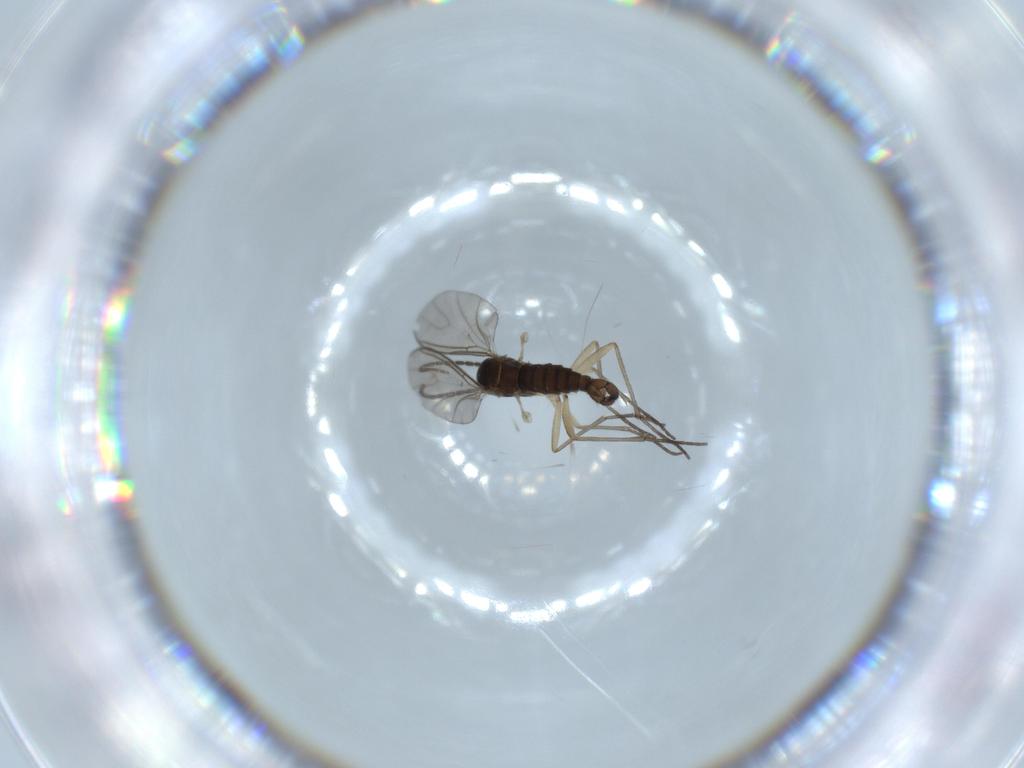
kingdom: Animalia
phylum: Arthropoda
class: Insecta
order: Diptera
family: Sciaridae
